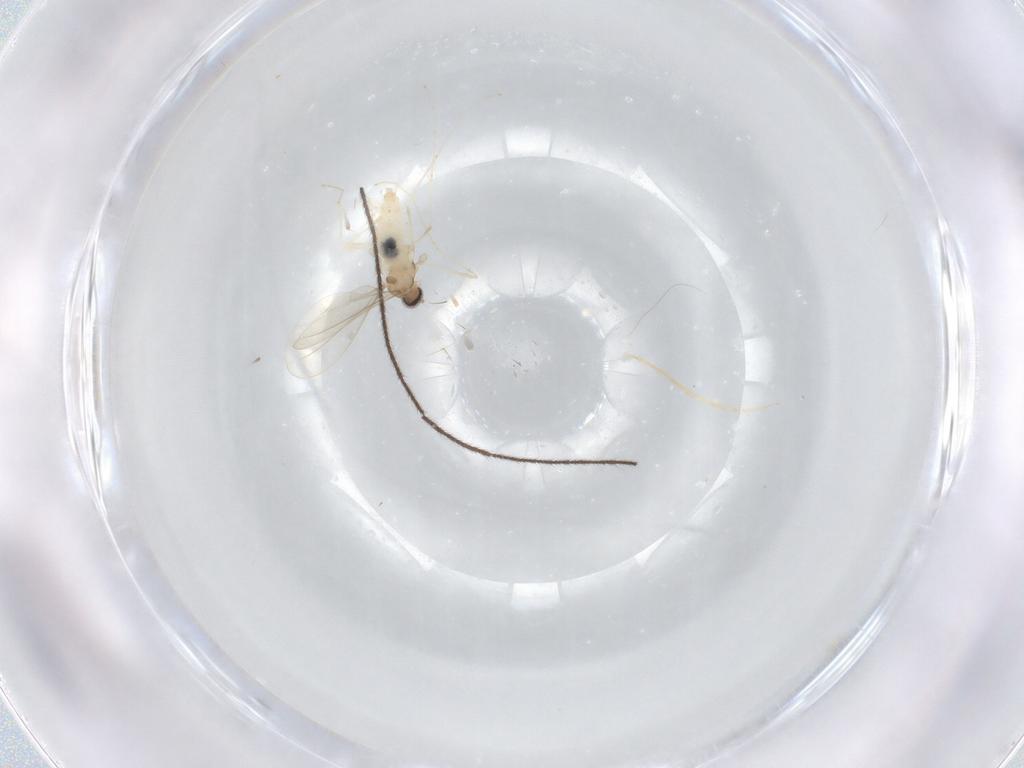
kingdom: Animalia
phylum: Arthropoda
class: Insecta
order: Diptera
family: Cecidomyiidae
